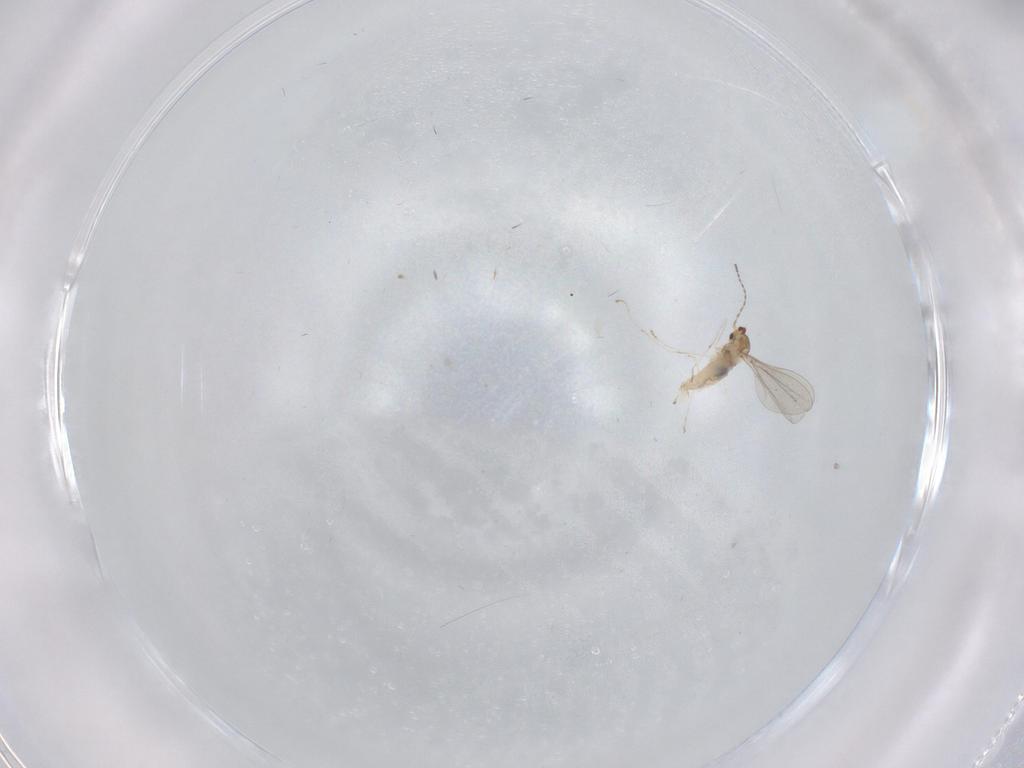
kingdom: Animalia
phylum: Arthropoda
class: Insecta
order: Diptera
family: Cecidomyiidae
